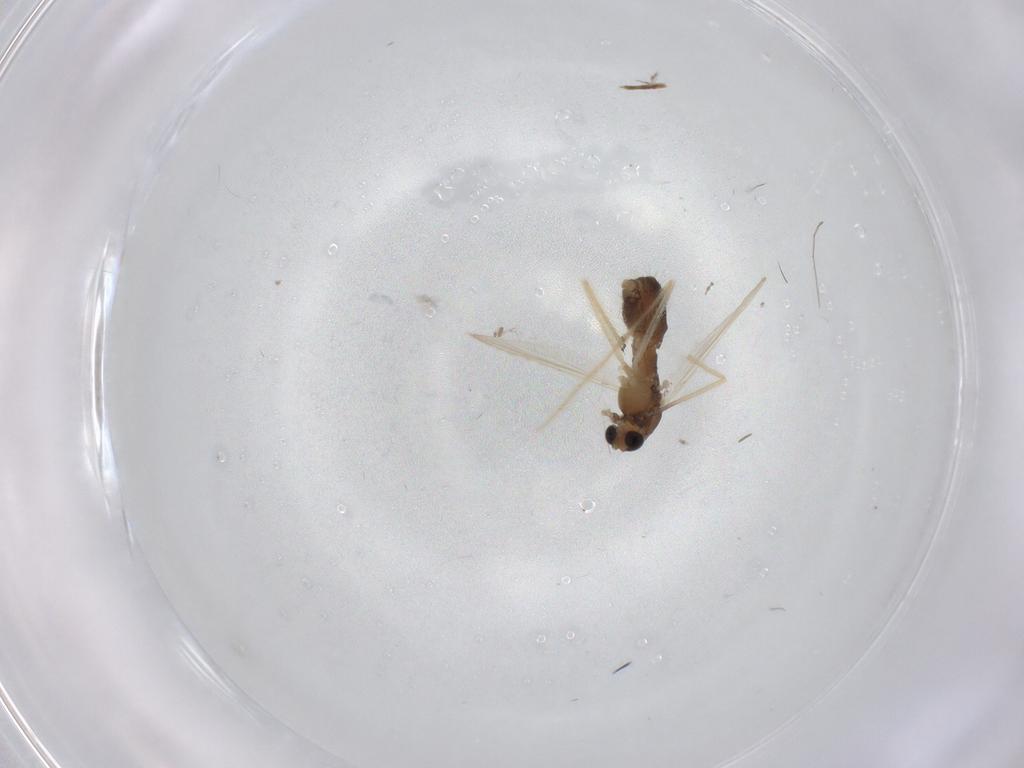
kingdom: Animalia
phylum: Arthropoda
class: Insecta
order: Diptera
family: Chironomidae
